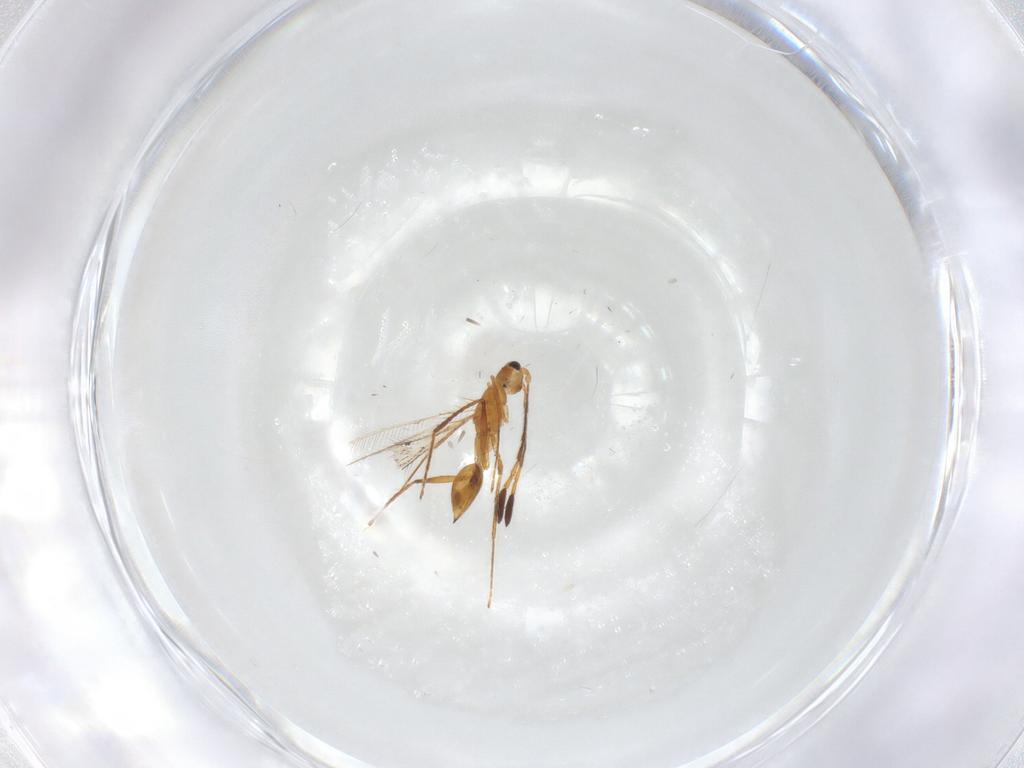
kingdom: Animalia
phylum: Arthropoda
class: Insecta
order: Hymenoptera
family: Mymaridae
